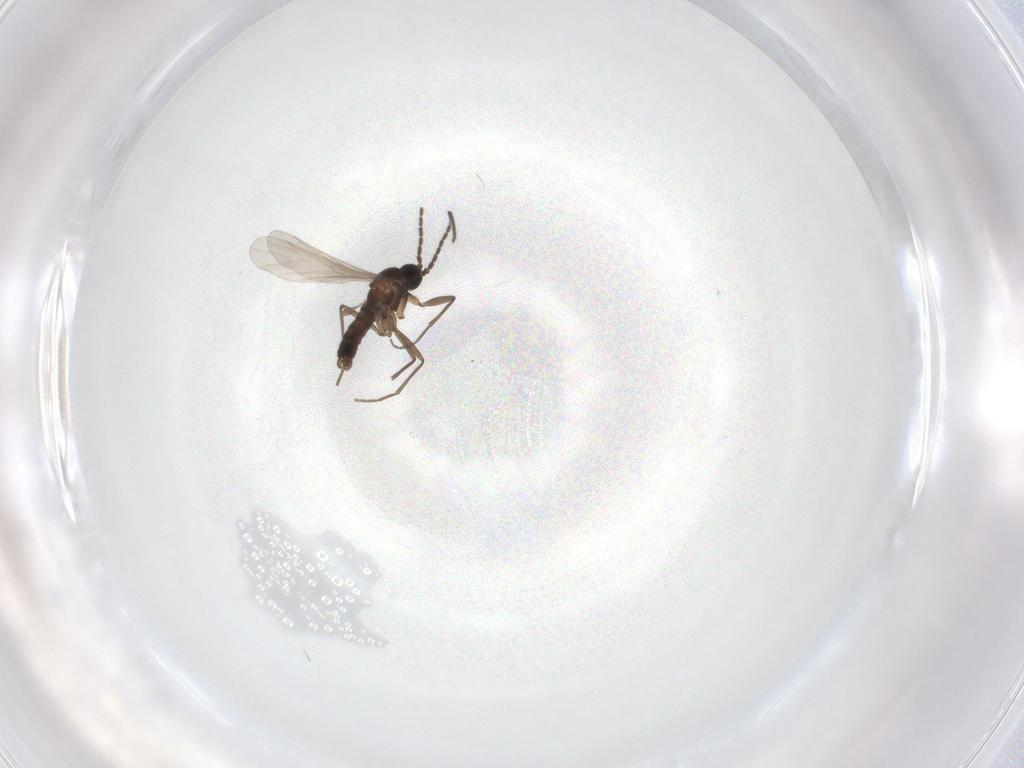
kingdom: Animalia
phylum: Arthropoda
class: Insecta
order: Diptera
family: Sciaridae
